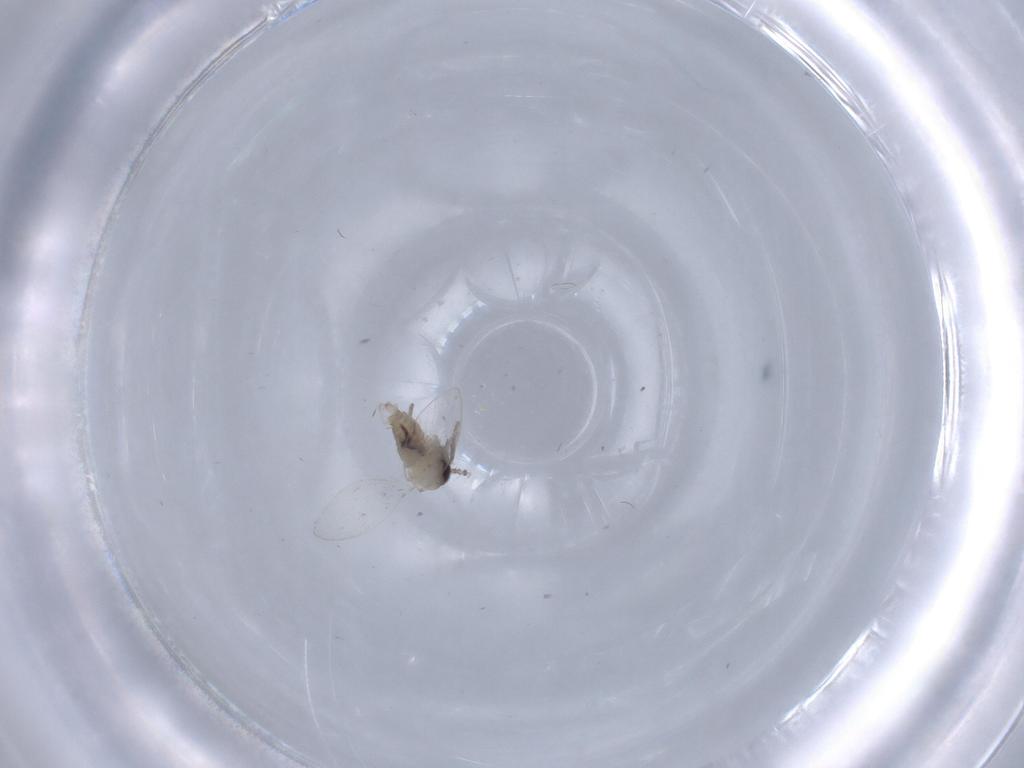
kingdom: Animalia
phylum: Arthropoda
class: Insecta
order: Diptera
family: Psychodidae
